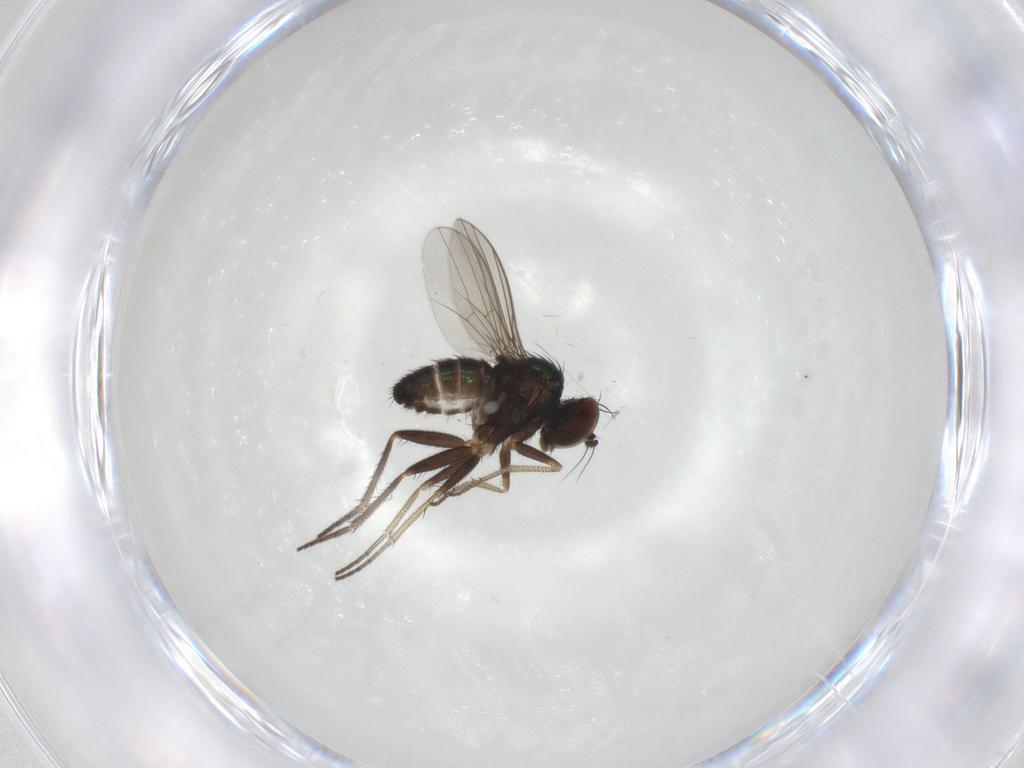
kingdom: Animalia
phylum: Arthropoda
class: Insecta
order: Diptera
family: Dolichopodidae
